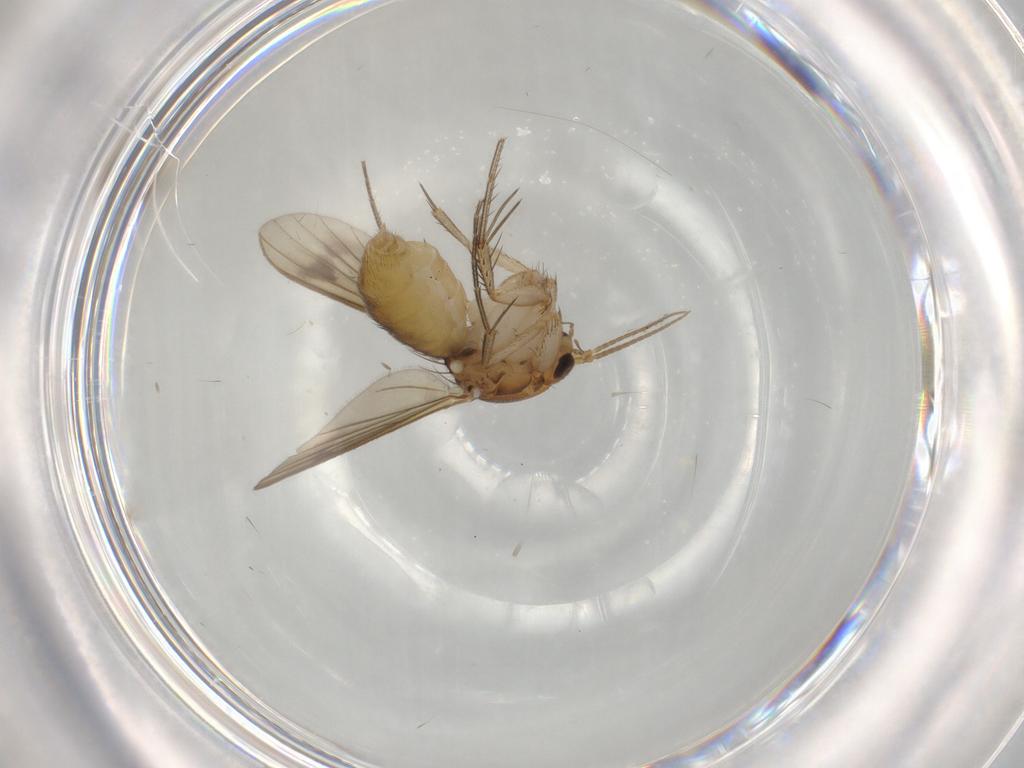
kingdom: Animalia
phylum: Arthropoda
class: Insecta
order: Diptera
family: Mycetophilidae
